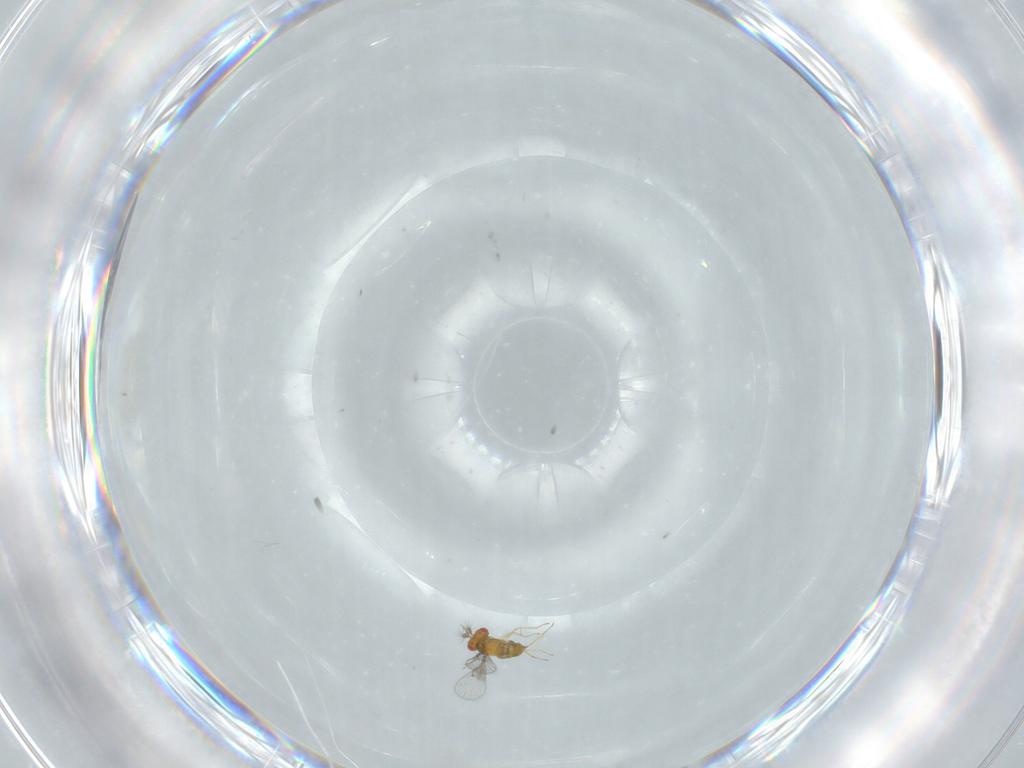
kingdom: Animalia
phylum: Arthropoda
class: Insecta
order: Hymenoptera
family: Trichogrammatidae
